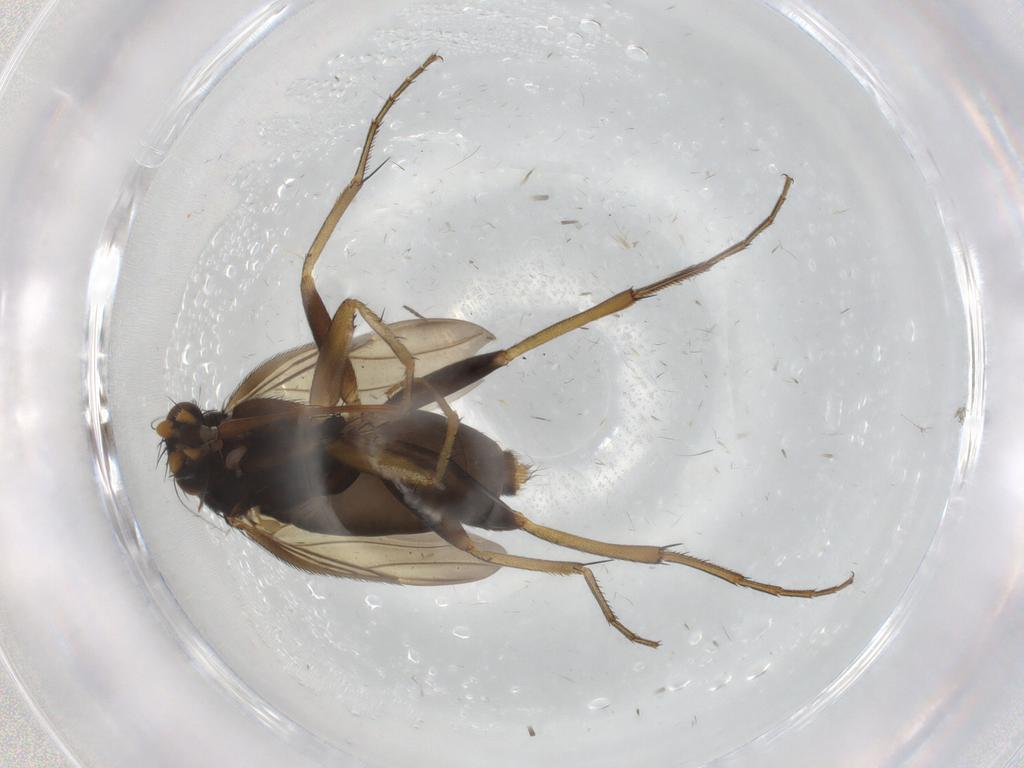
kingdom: Animalia
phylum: Arthropoda
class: Insecta
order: Diptera
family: Phoridae
